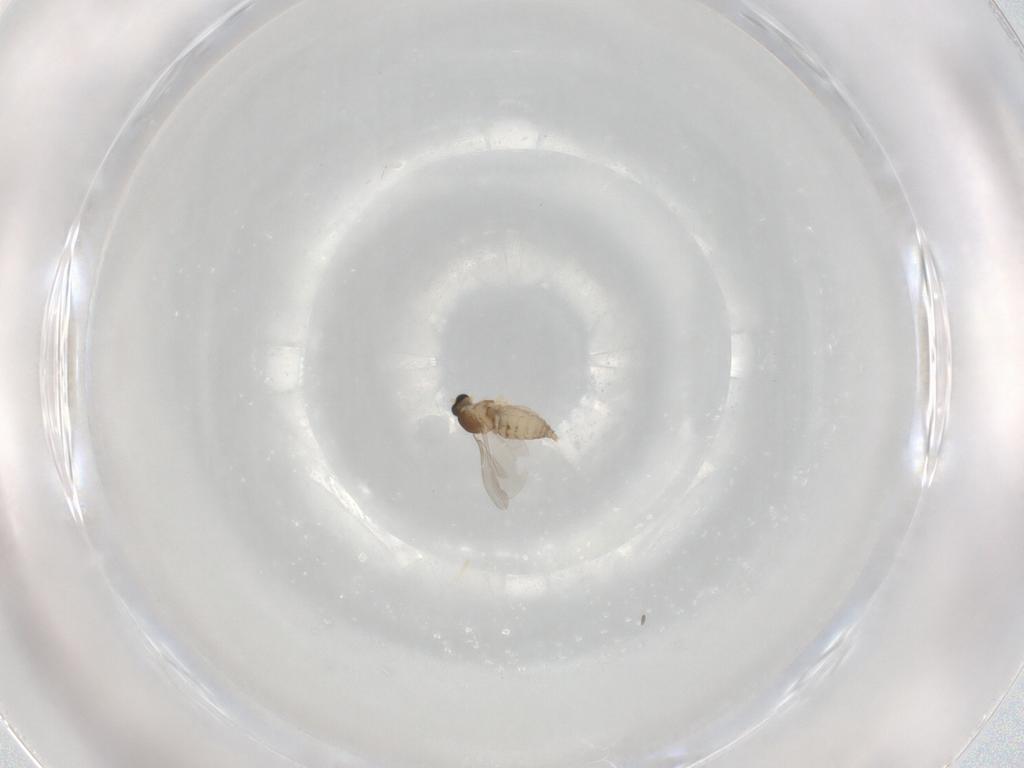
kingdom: Animalia
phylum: Arthropoda
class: Insecta
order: Diptera
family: Cecidomyiidae
